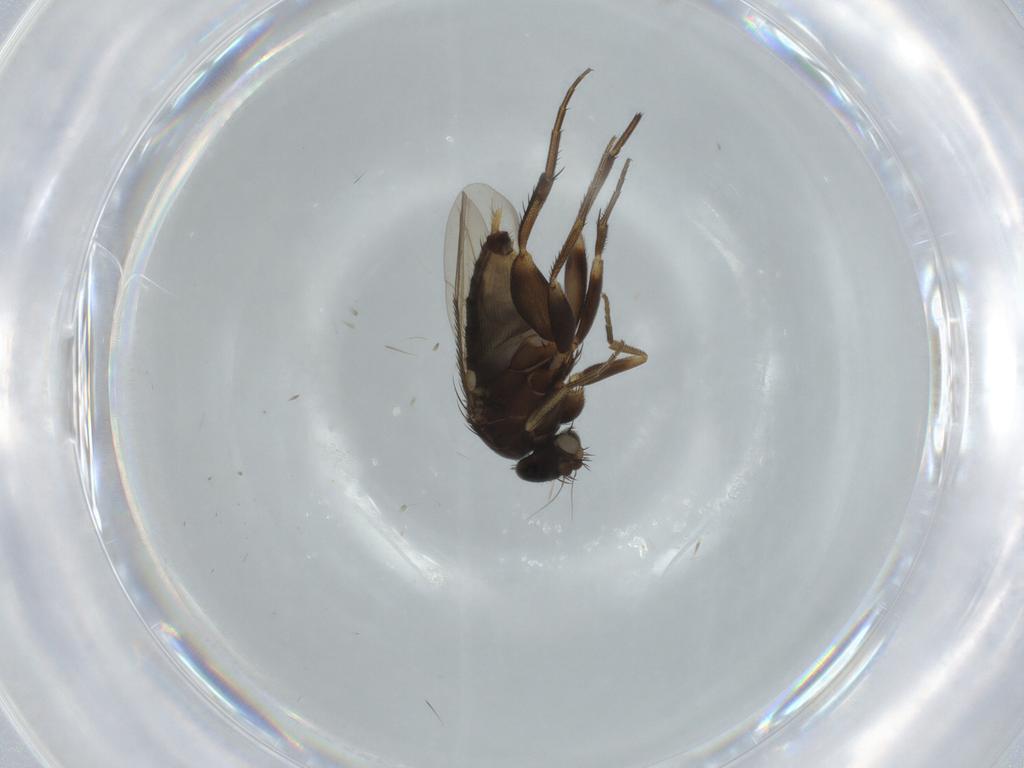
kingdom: Animalia
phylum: Arthropoda
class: Insecta
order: Diptera
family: Phoridae
